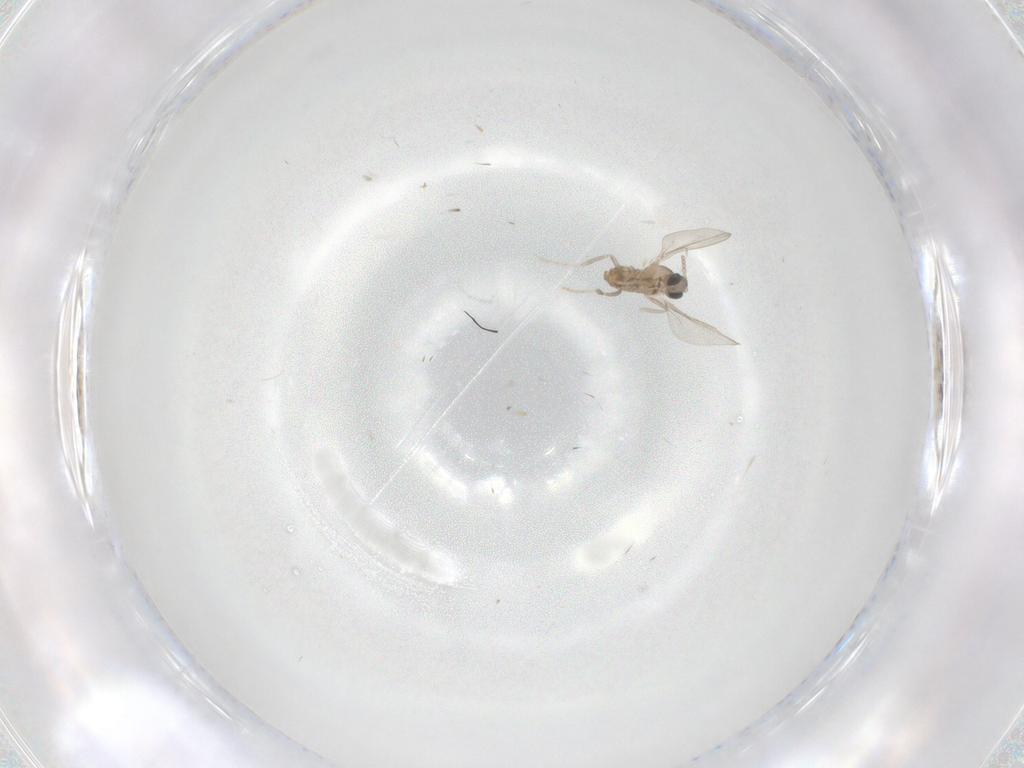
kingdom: Animalia
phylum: Arthropoda
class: Insecta
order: Diptera
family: Cecidomyiidae
